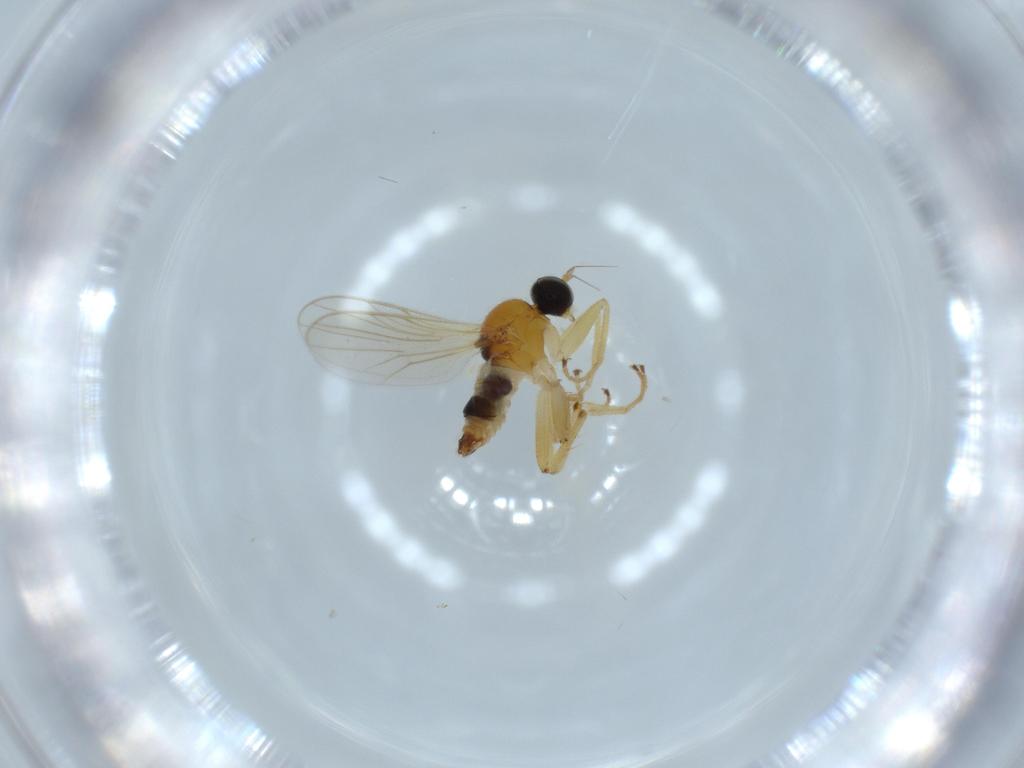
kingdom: Animalia
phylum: Arthropoda
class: Insecta
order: Diptera
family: Hybotidae
